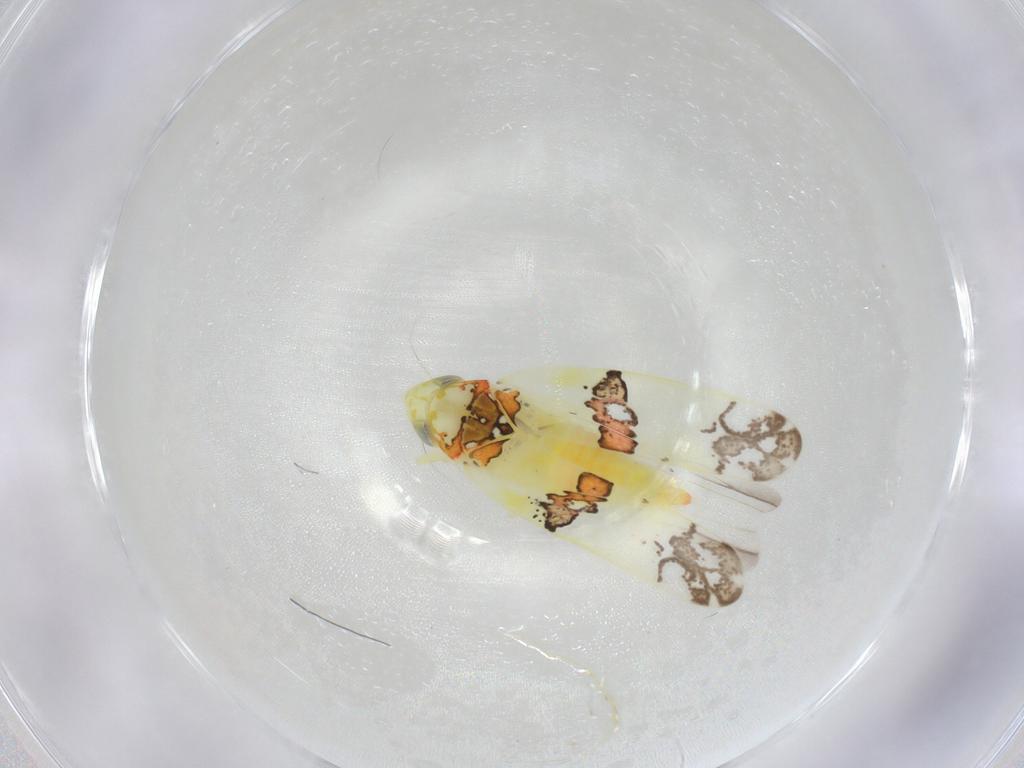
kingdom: Animalia
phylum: Arthropoda
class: Insecta
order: Hemiptera
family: Cicadellidae
